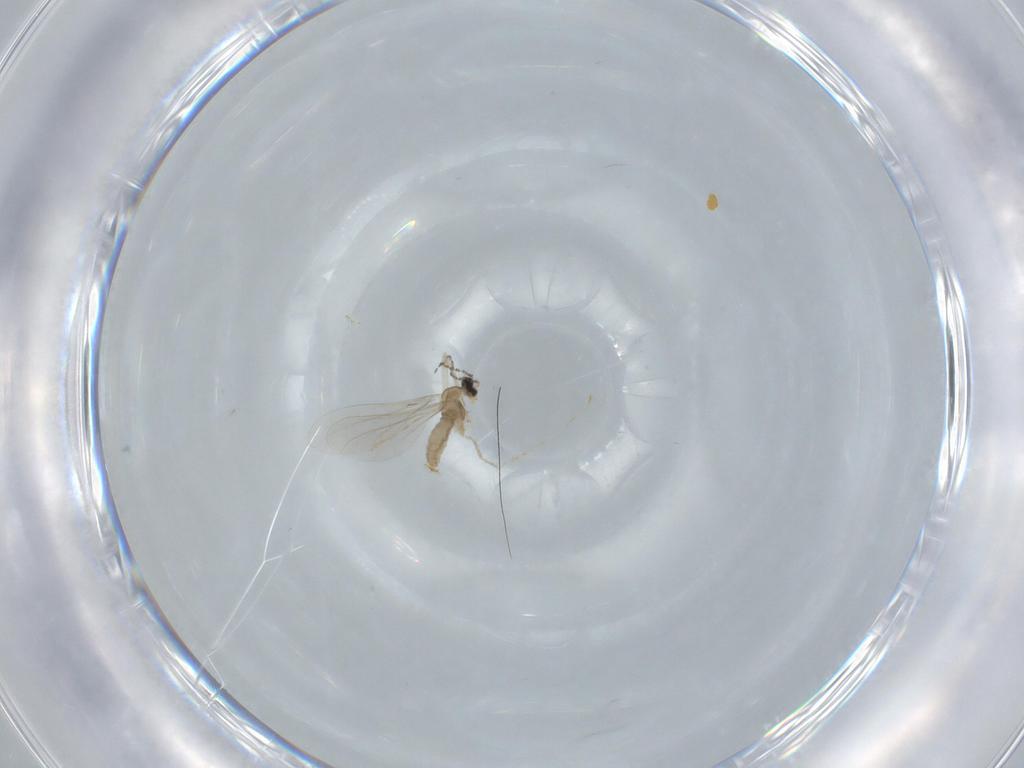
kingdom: Animalia
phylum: Arthropoda
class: Insecta
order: Diptera
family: Cecidomyiidae
